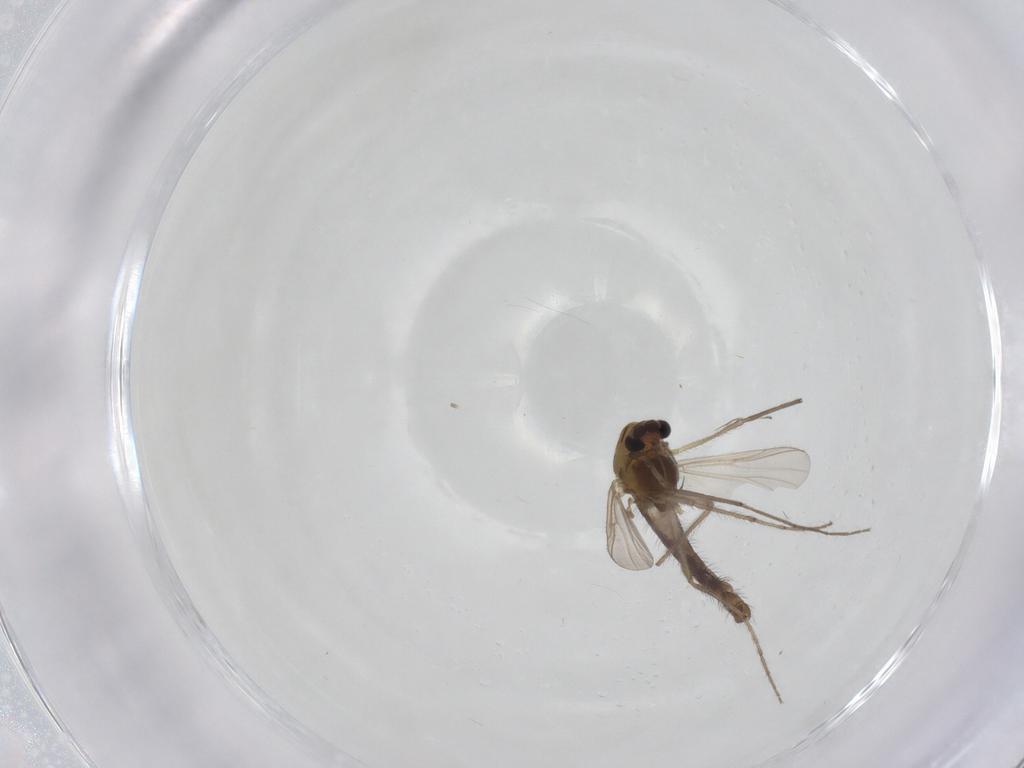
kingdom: Animalia
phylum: Arthropoda
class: Insecta
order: Diptera
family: Chironomidae
